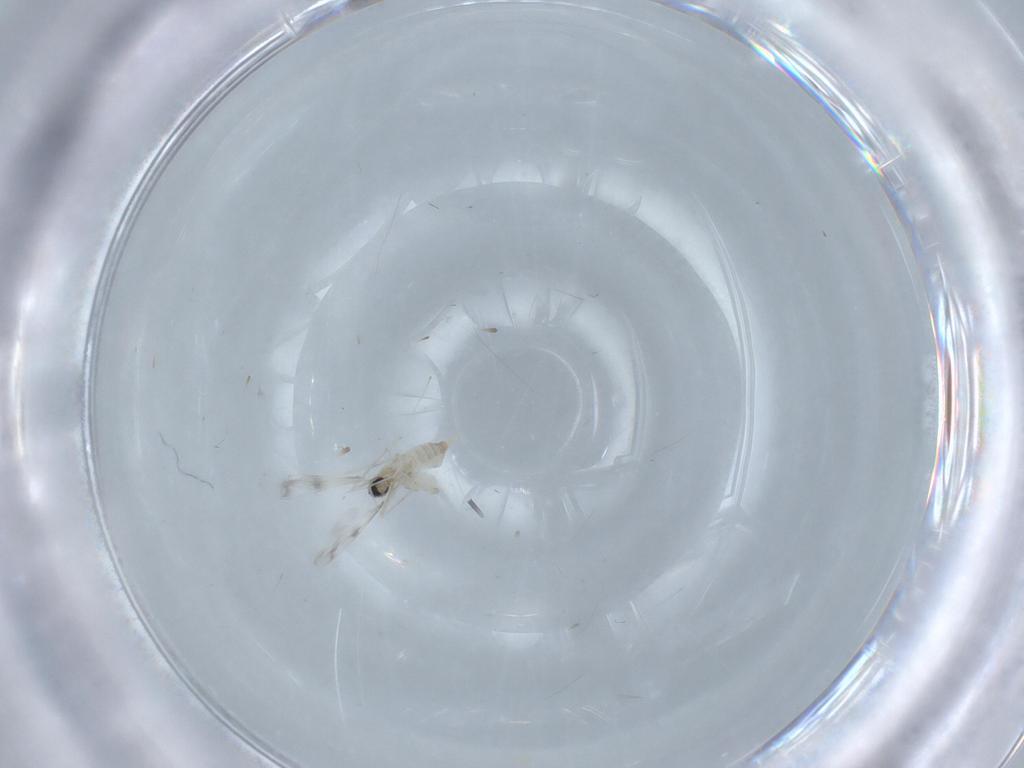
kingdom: Animalia
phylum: Arthropoda
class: Insecta
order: Diptera
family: Cecidomyiidae
